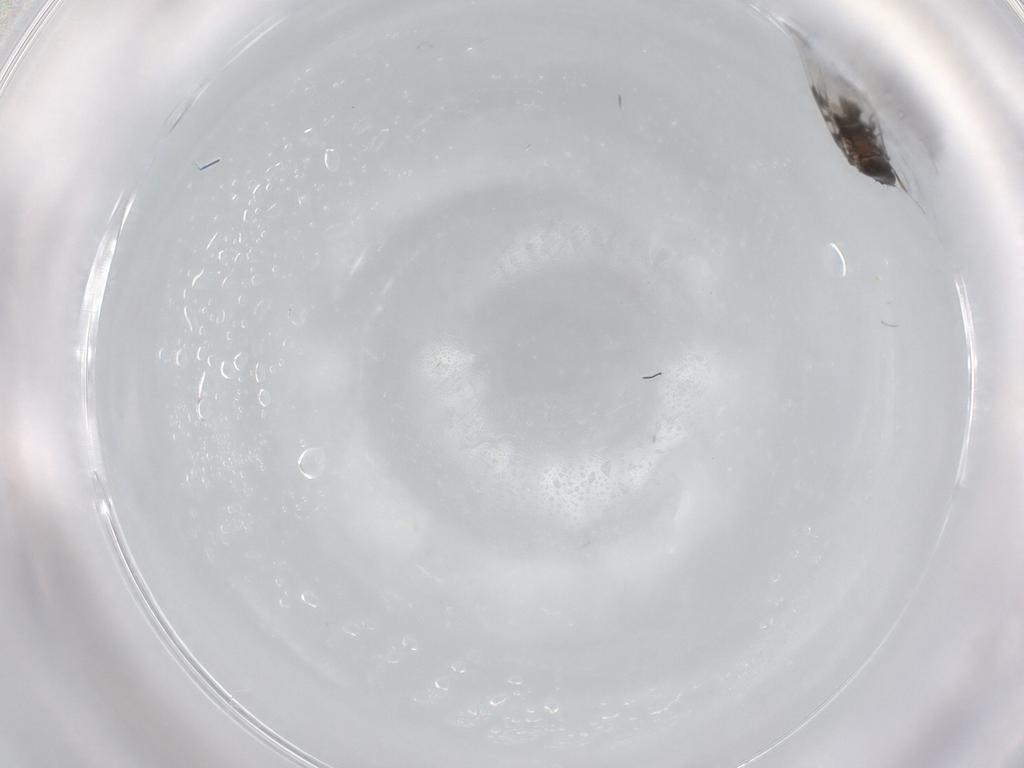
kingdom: Animalia
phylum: Arthropoda
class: Insecta
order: Diptera
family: Phoridae
